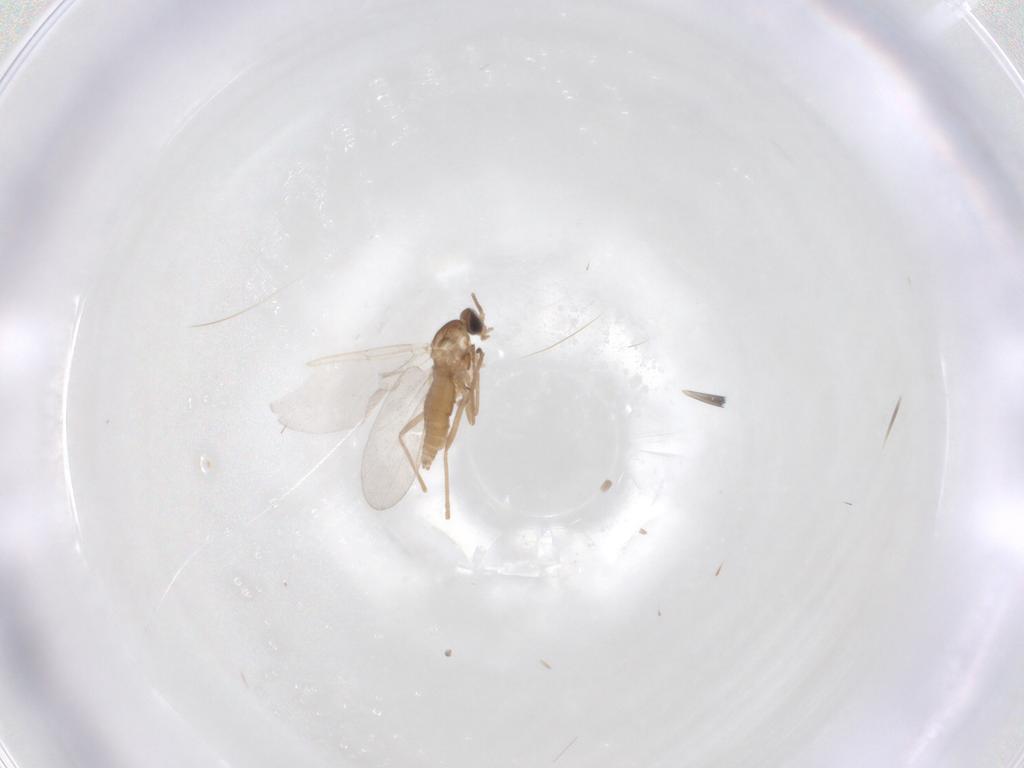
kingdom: Animalia
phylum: Arthropoda
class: Insecta
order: Diptera
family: Cecidomyiidae
